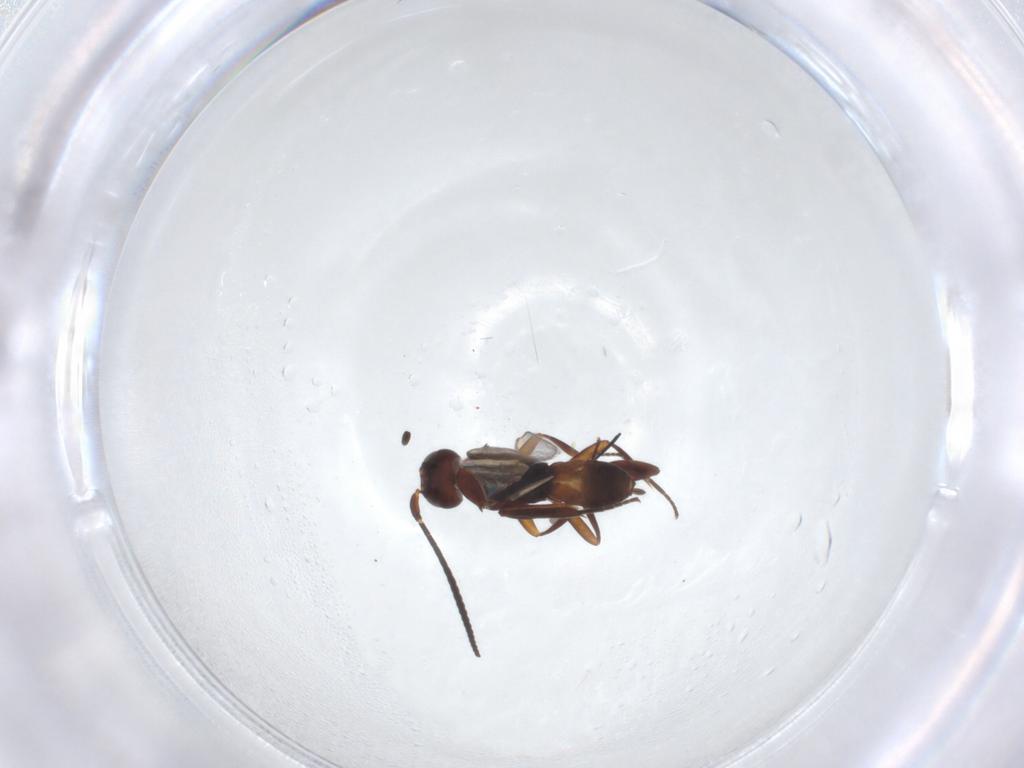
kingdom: Animalia
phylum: Arthropoda
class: Insecta
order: Hymenoptera
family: Braconidae
